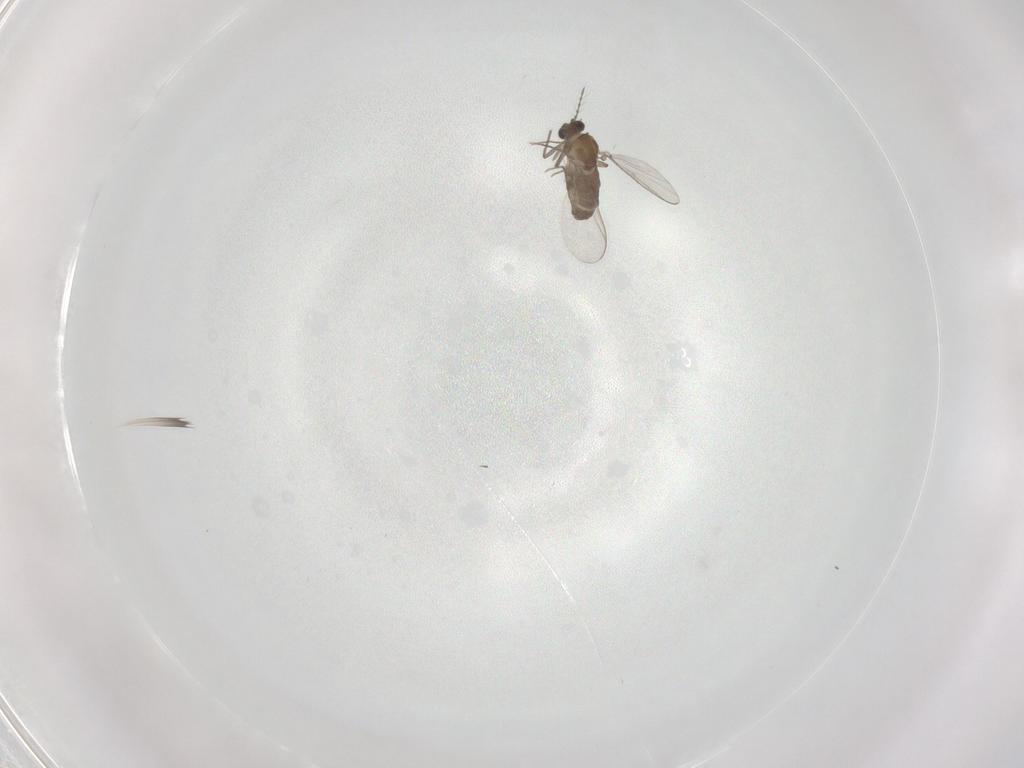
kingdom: Animalia
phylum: Arthropoda
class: Insecta
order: Diptera
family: Chironomidae
